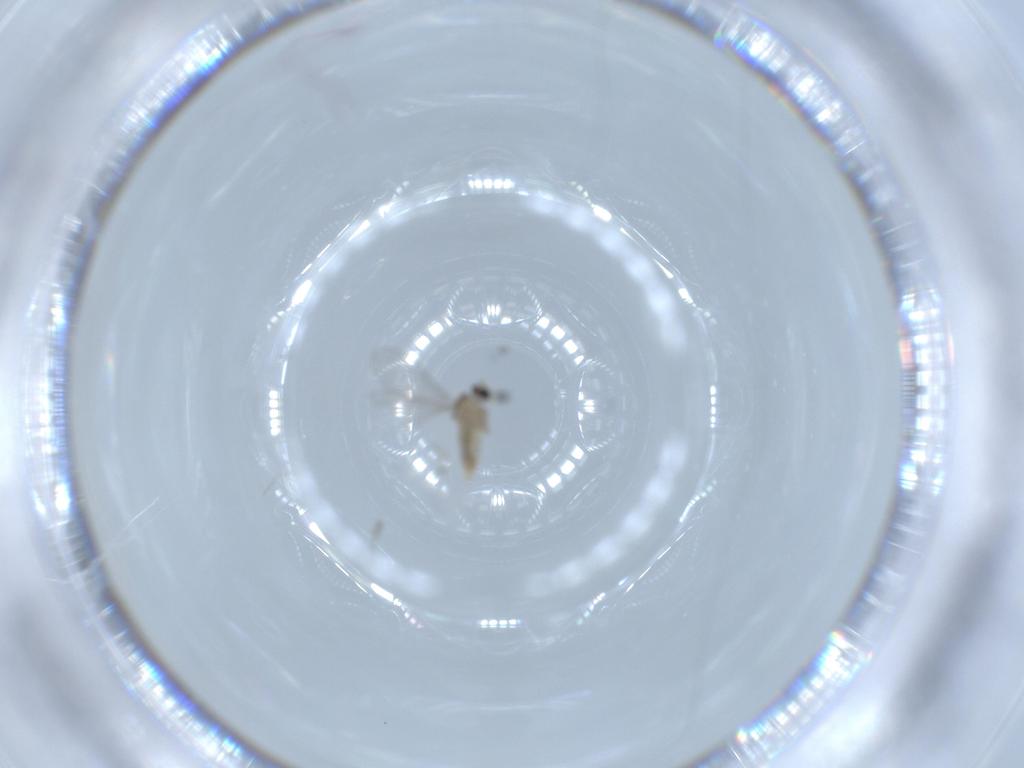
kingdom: Animalia
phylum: Arthropoda
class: Insecta
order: Diptera
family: Cecidomyiidae
